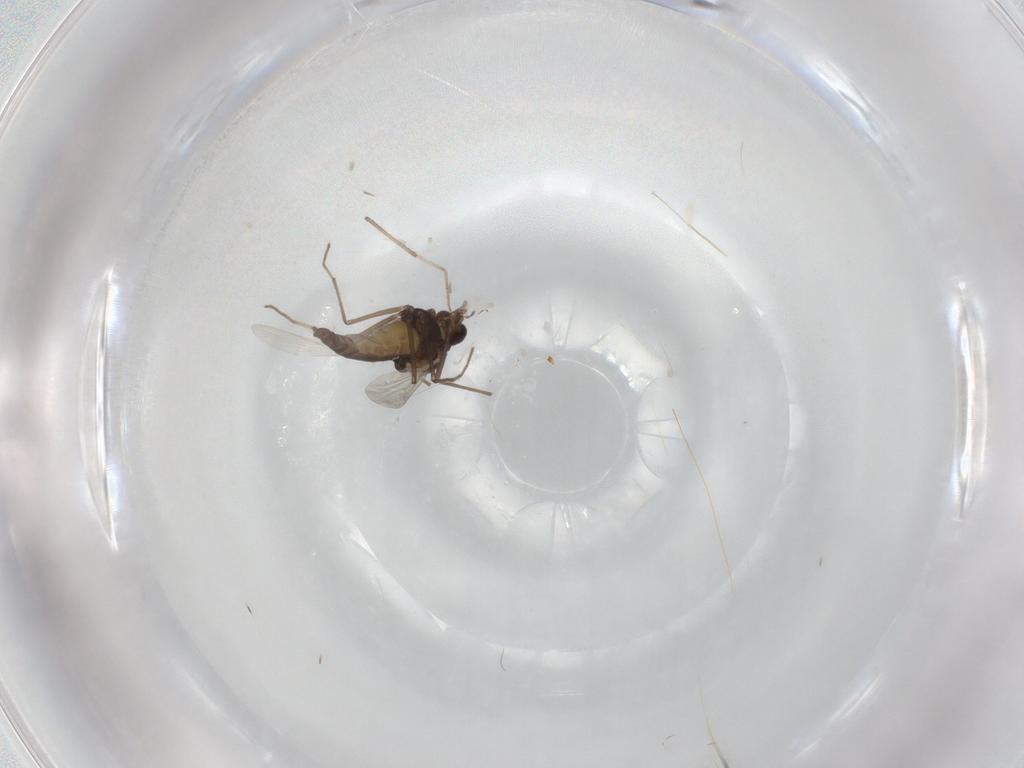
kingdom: Animalia
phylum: Arthropoda
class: Insecta
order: Diptera
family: Chironomidae
